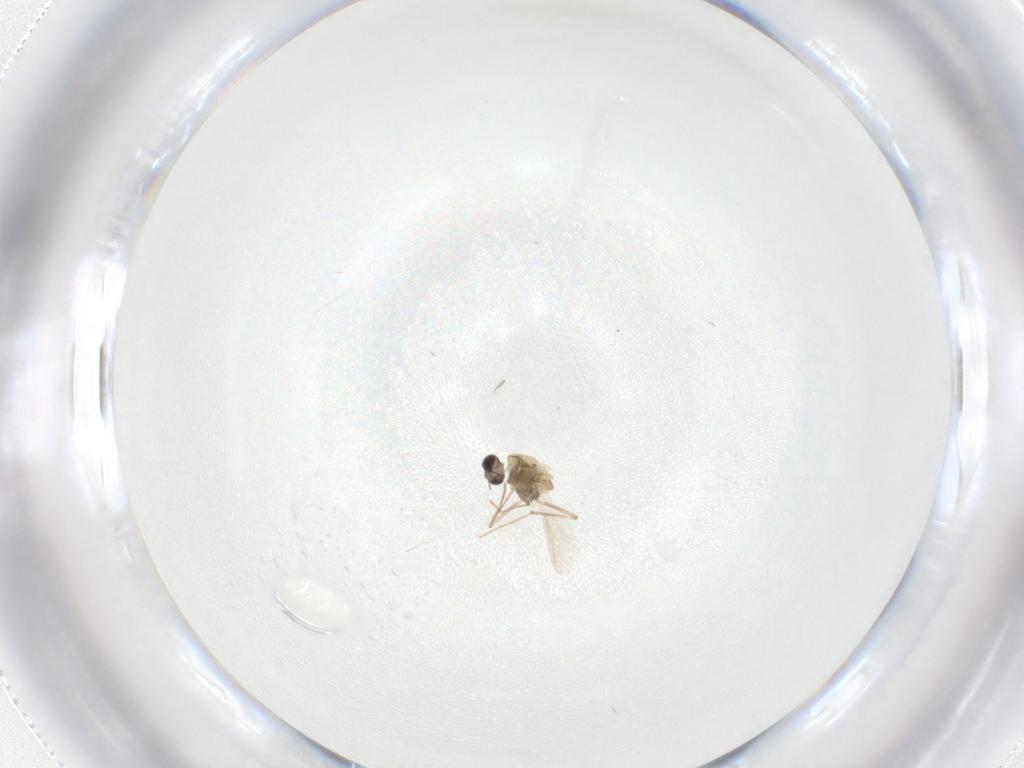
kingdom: Animalia
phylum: Arthropoda
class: Insecta
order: Diptera
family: Chironomidae
